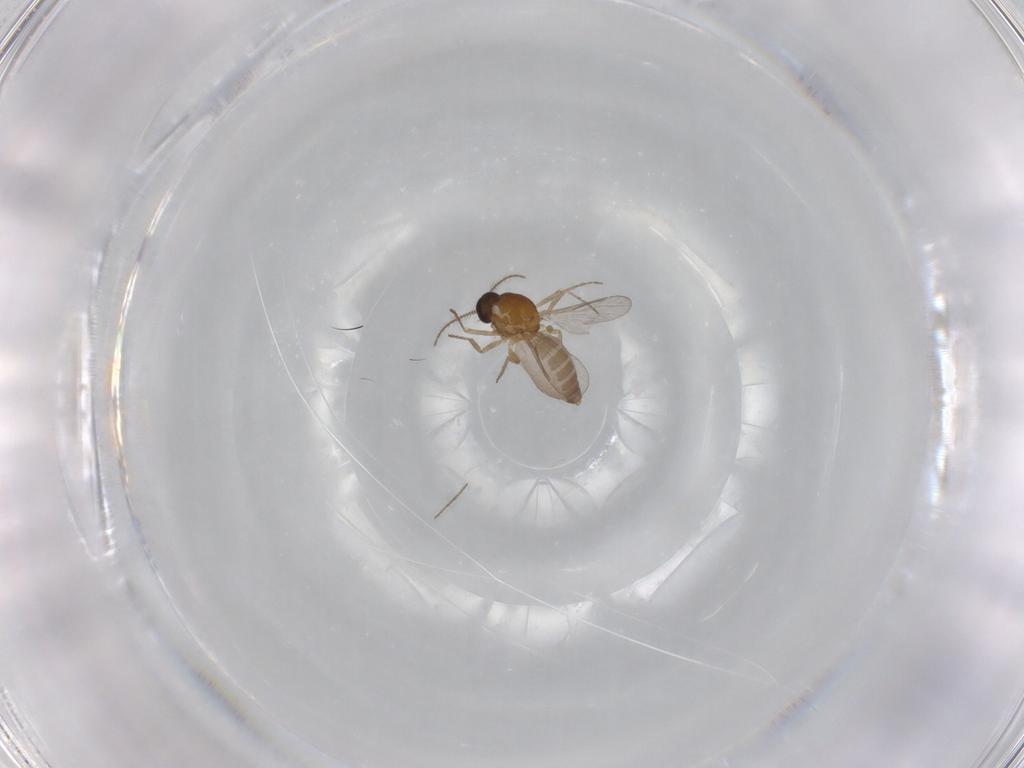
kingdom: Animalia
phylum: Arthropoda
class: Insecta
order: Diptera
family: Ceratopogonidae
